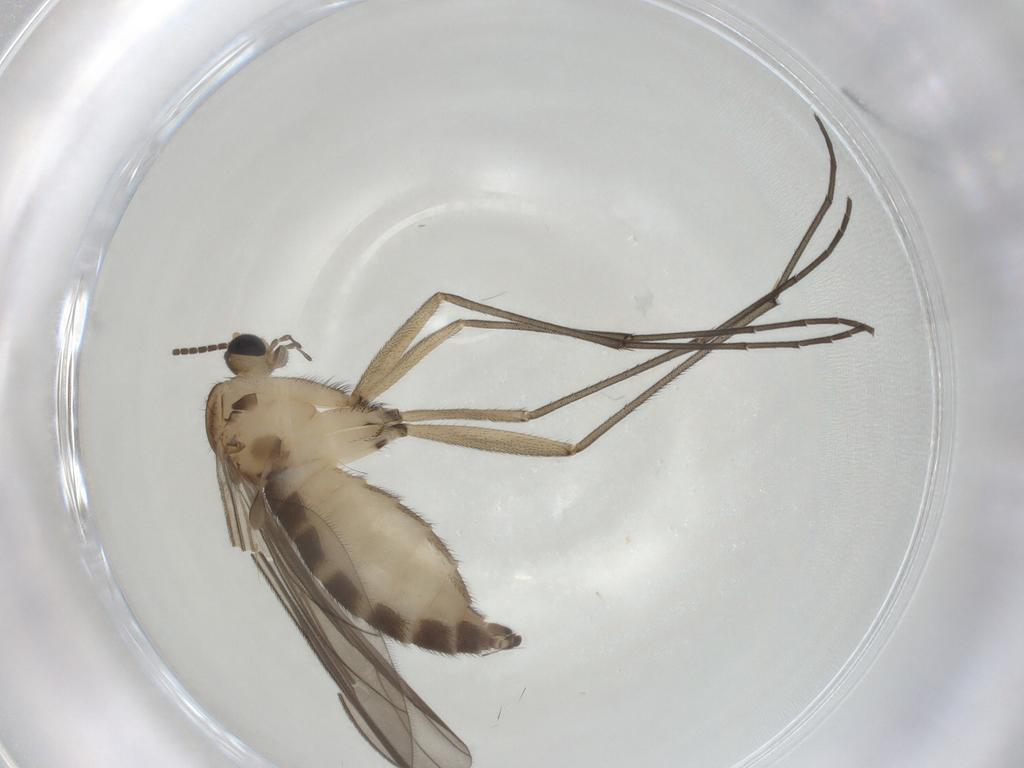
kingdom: Animalia
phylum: Arthropoda
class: Insecta
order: Diptera
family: Sciaridae
